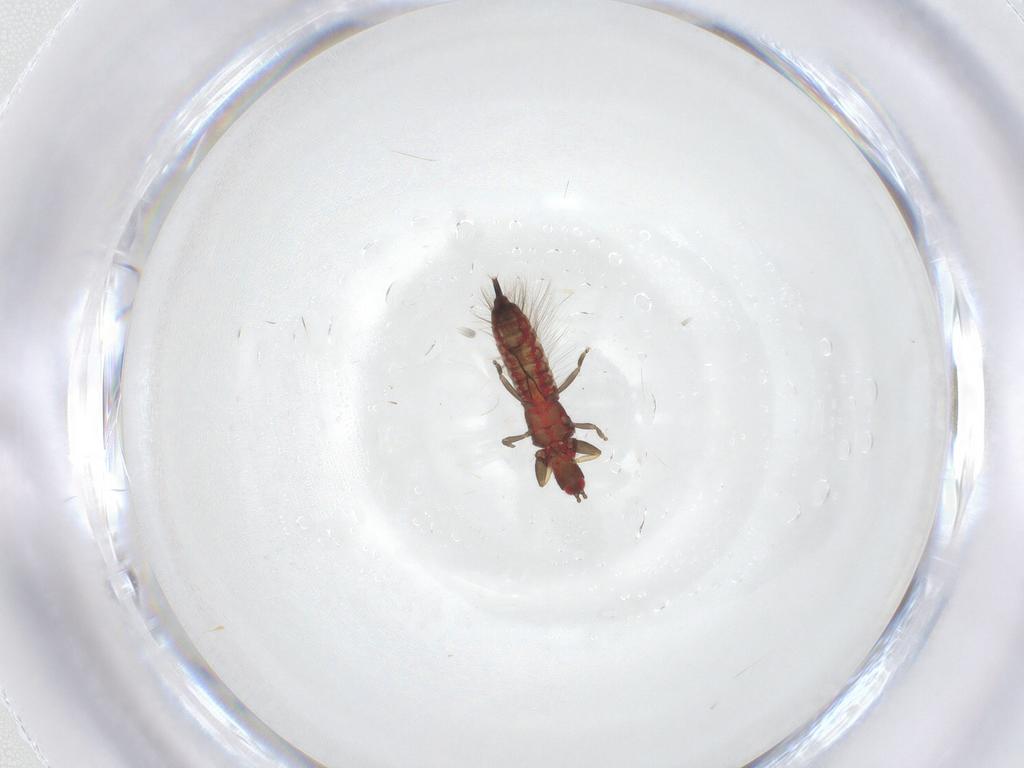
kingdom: Animalia
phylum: Arthropoda
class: Insecta
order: Thysanoptera
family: Phlaeothripidae
